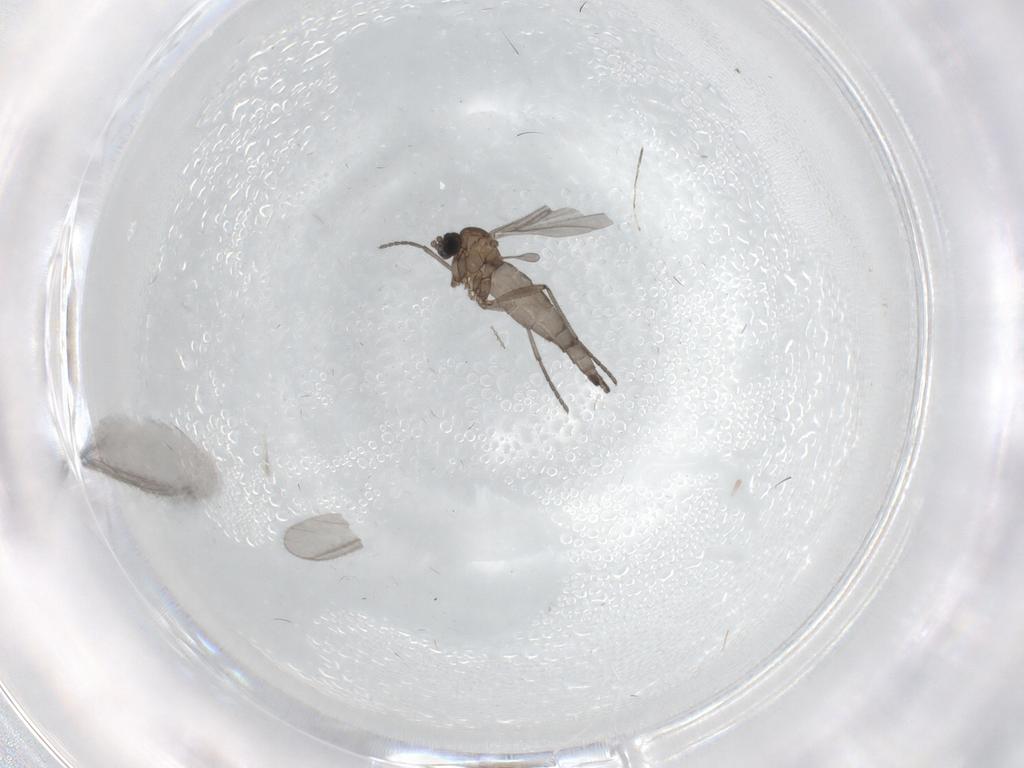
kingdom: Animalia
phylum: Arthropoda
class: Insecta
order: Diptera
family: Sciaridae
